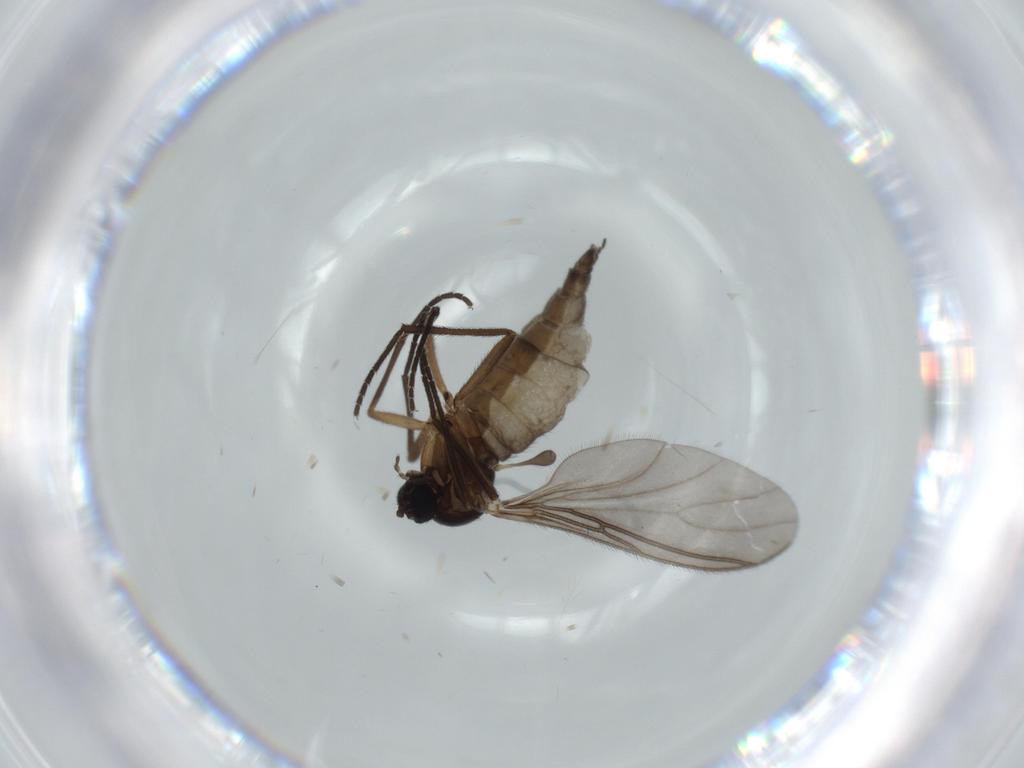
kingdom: Animalia
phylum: Arthropoda
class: Insecta
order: Diptera
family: Sciaridae
